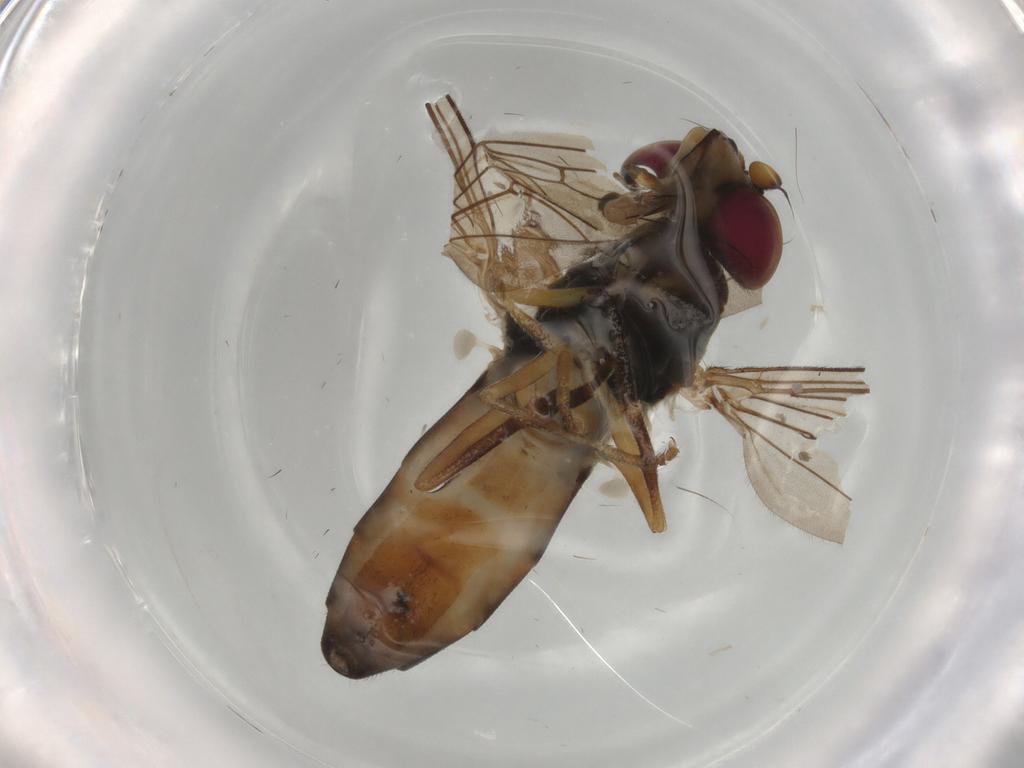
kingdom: Animalia
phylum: Arthropoda
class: Insecta
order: Diptera
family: Syrphidae
